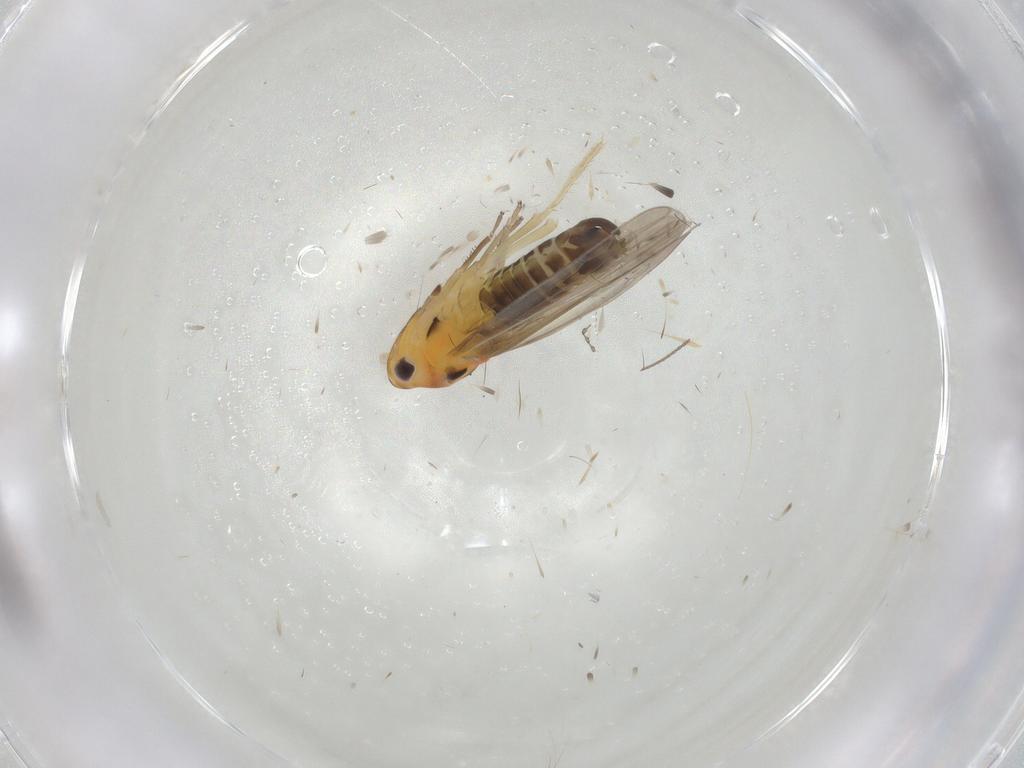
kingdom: Animalia
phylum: Arthropoda
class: Insecta
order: Hemiptera
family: Cicadellidae
